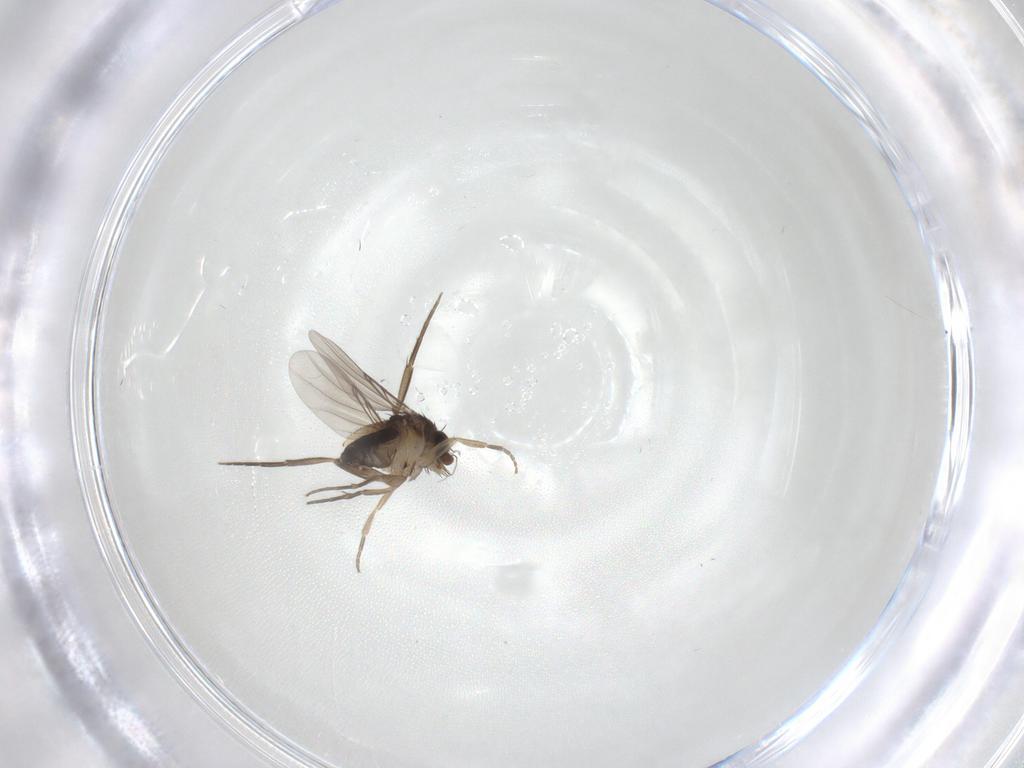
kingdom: Animalia
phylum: Arthropoda
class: Insecta
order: Diptera
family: Phoridae
